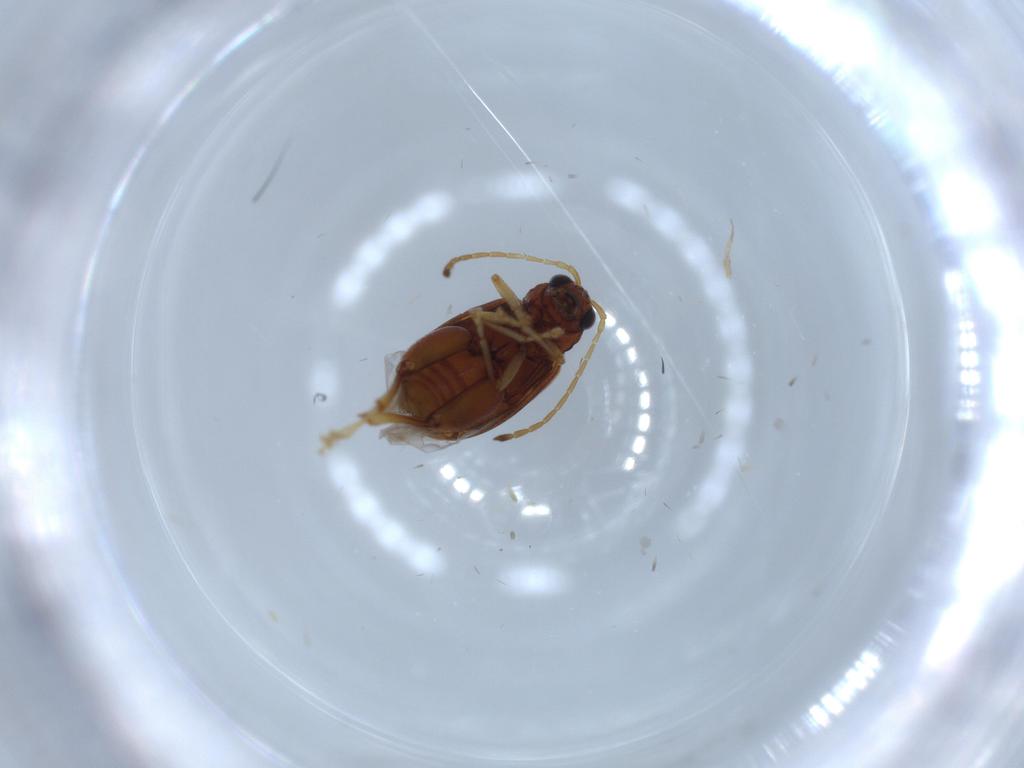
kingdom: Animalia
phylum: Arthropoda
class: Insecta
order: Coleoptera
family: Chrysomelidae
